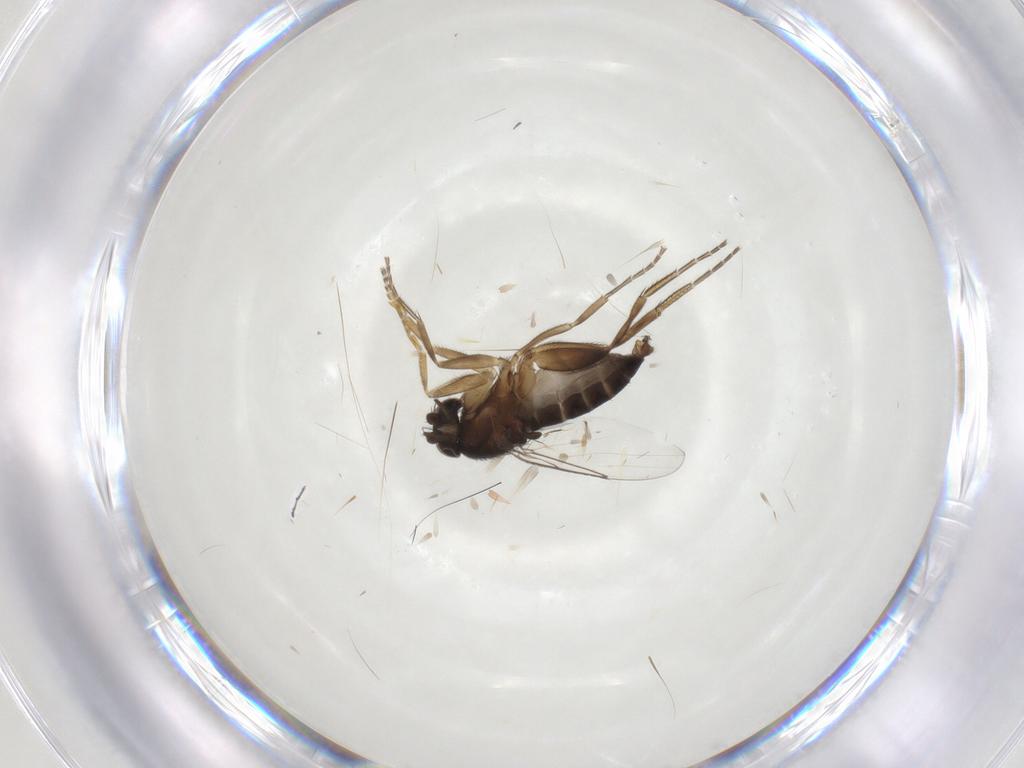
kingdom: Animalia
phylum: Arthropoda
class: Insecta
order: Diptera
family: Phoridae
